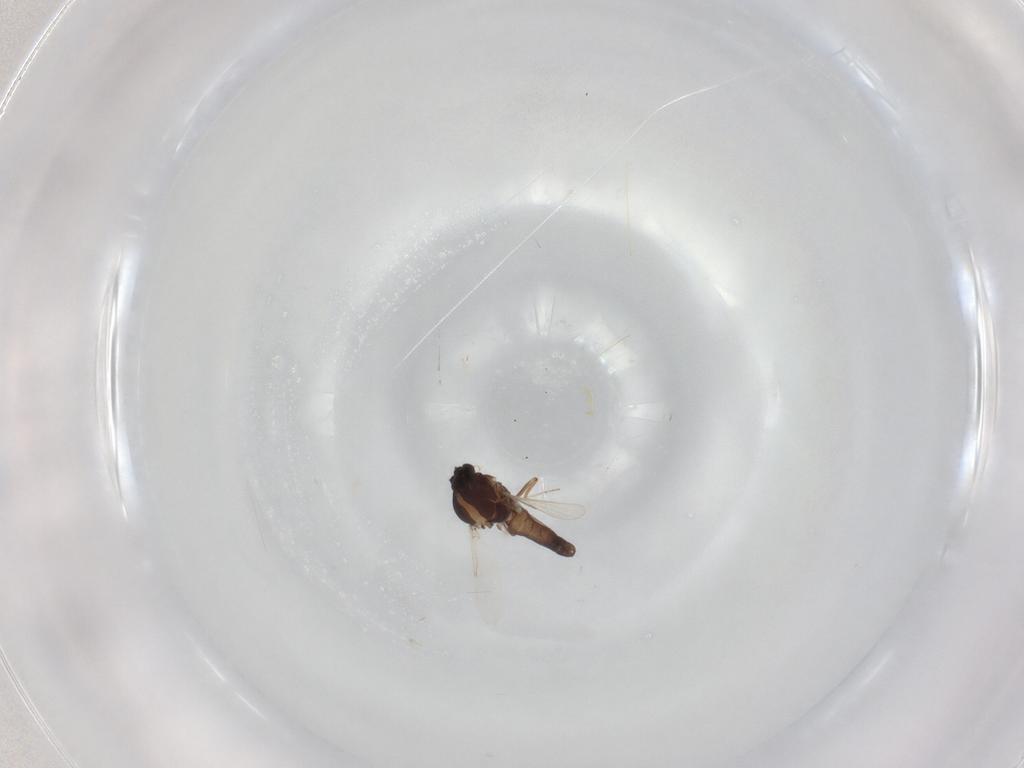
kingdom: Animalia
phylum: Arthropoda
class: Insecta
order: Diptera
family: Ceratopogonidae
